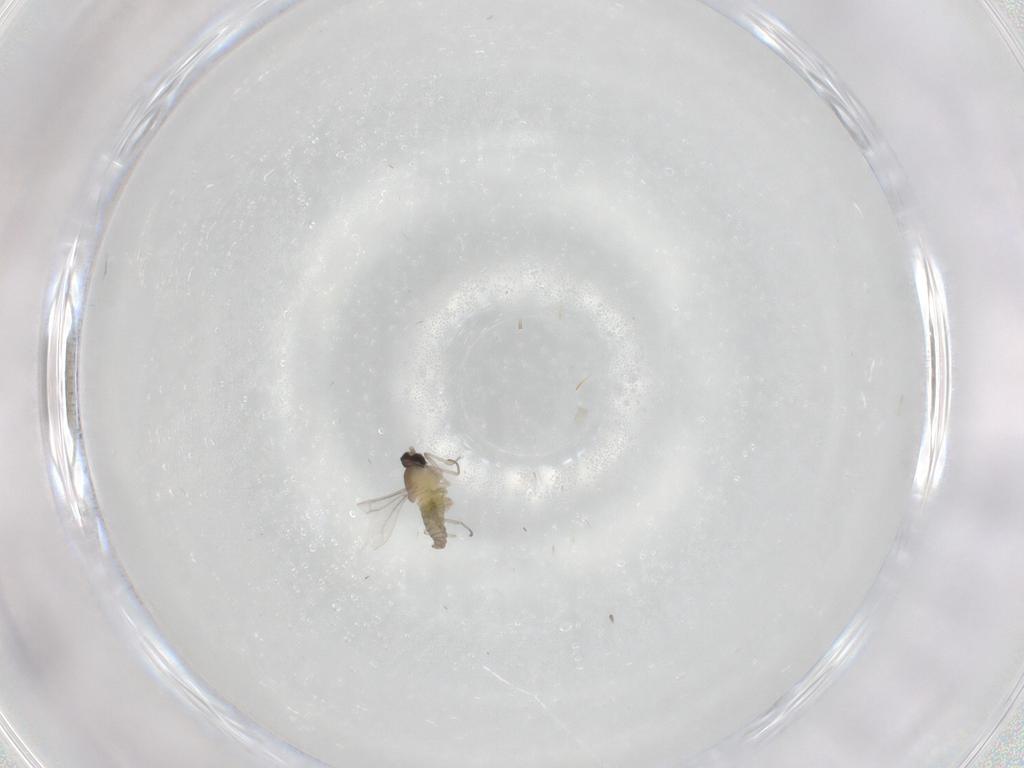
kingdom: Animalia
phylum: Arthropoda
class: Insecta
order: Diptera
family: Cecidomyiidae
